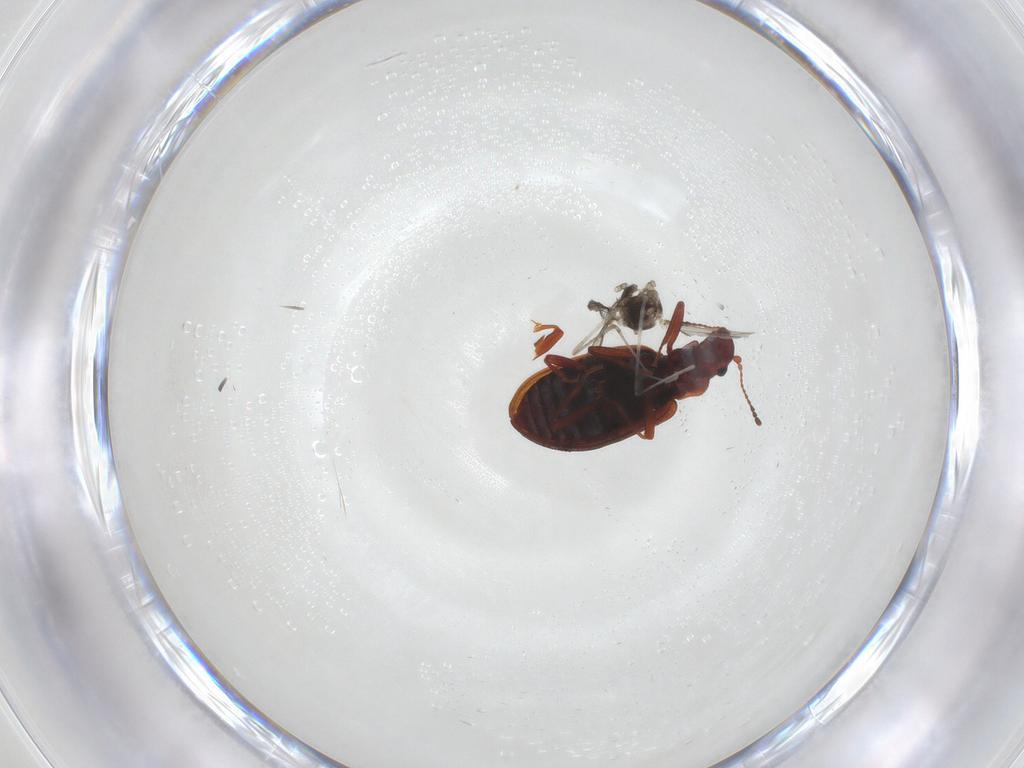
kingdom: Animalia
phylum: Arthropoda
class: Insecta
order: Diptera
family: Cecidomyiidae
